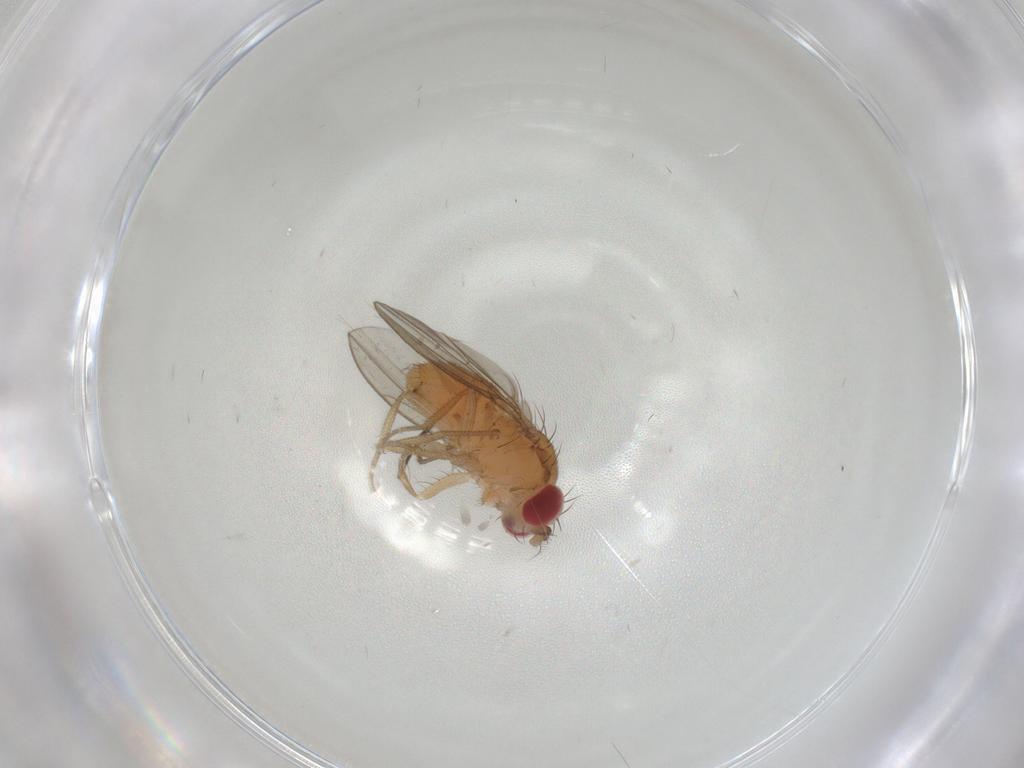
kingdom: Animalia
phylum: Arthropoda
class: Insecta
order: Diptera
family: Drosophilidae
